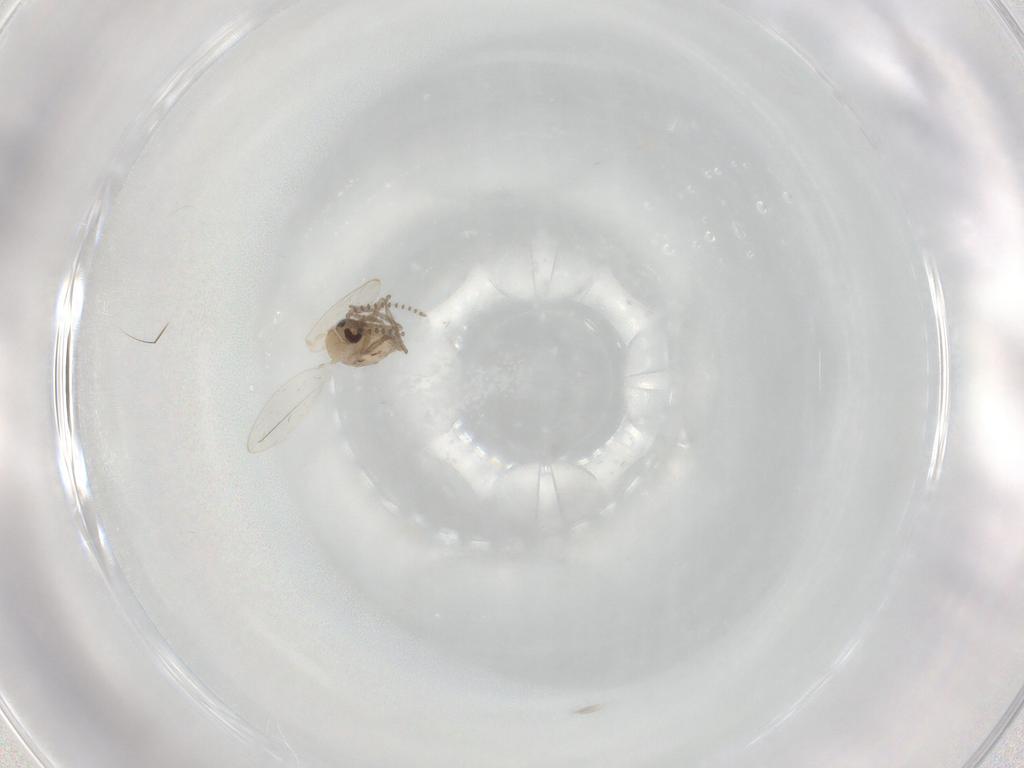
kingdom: Animalia
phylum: Arthropoda
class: Insecta
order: Diptera
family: Psychodidae
